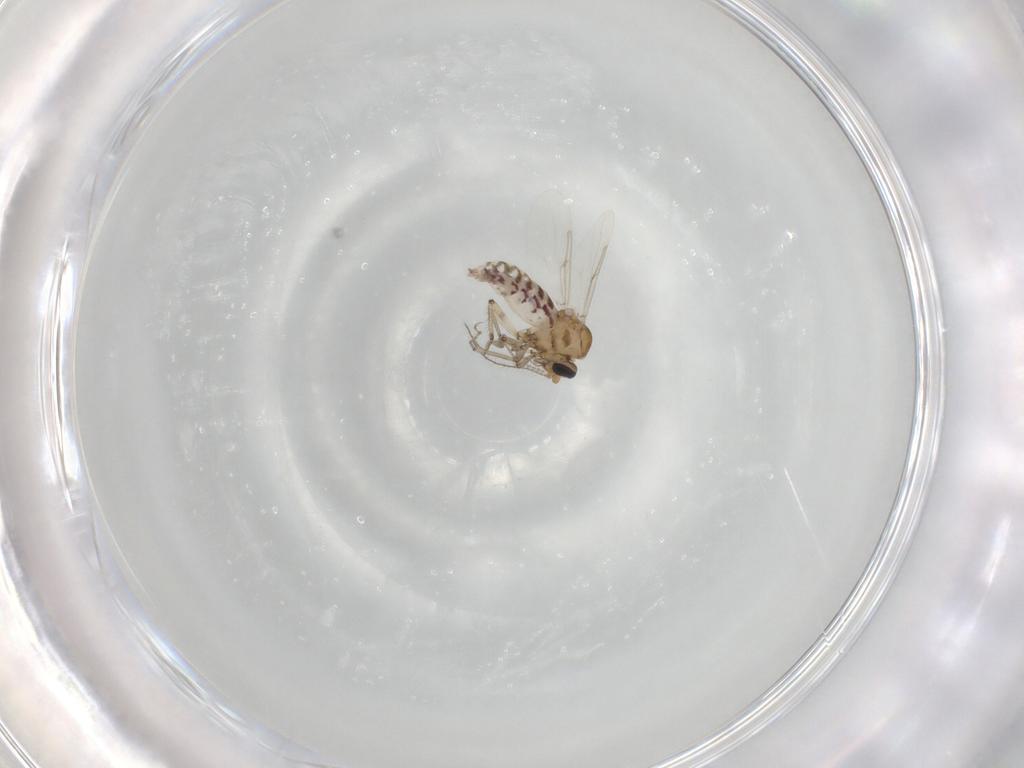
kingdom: Animalia
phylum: Arthropoda
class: Insecta
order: Diptera
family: Ceratopogonidae
